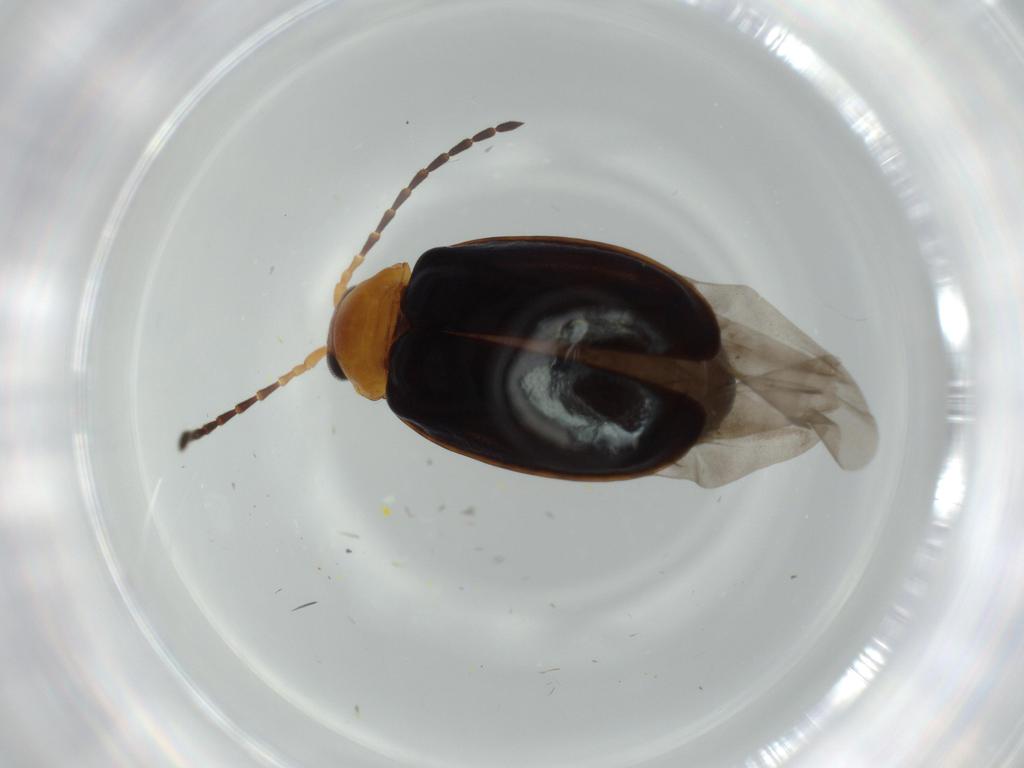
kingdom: Animalia
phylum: Arthropoda
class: Insecta
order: Coleoptera
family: Chrysomelidae
